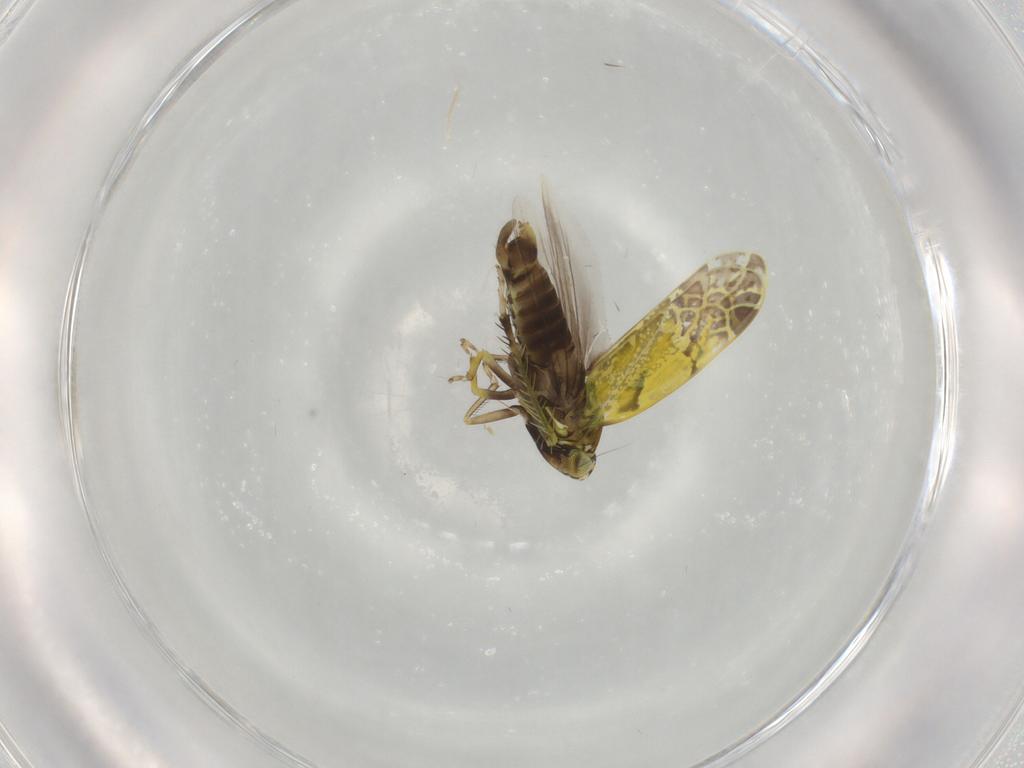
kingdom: Animalia
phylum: Arthropoda
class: Insecta
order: Hemiptera
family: Cicadellidae
